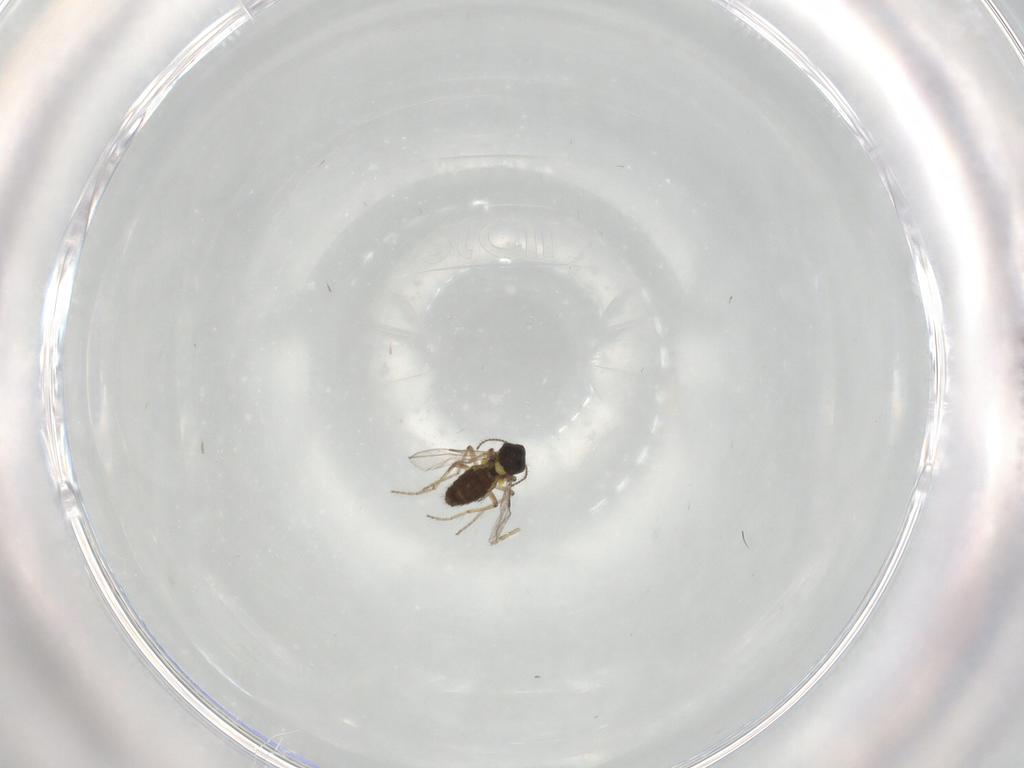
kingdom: Animalia
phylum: Arthropoda
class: Insecta
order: Diptera
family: Ceratopogonidae
